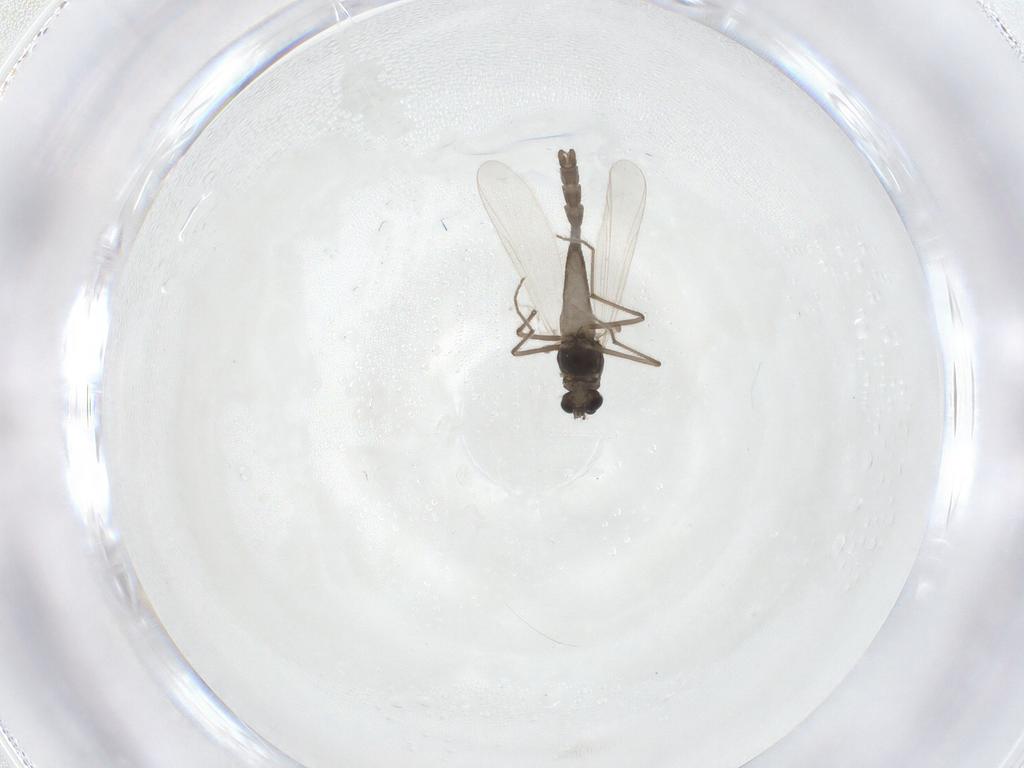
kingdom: Animalia
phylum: Arthropoda
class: Insecta
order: Diptera
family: Chironomidae
